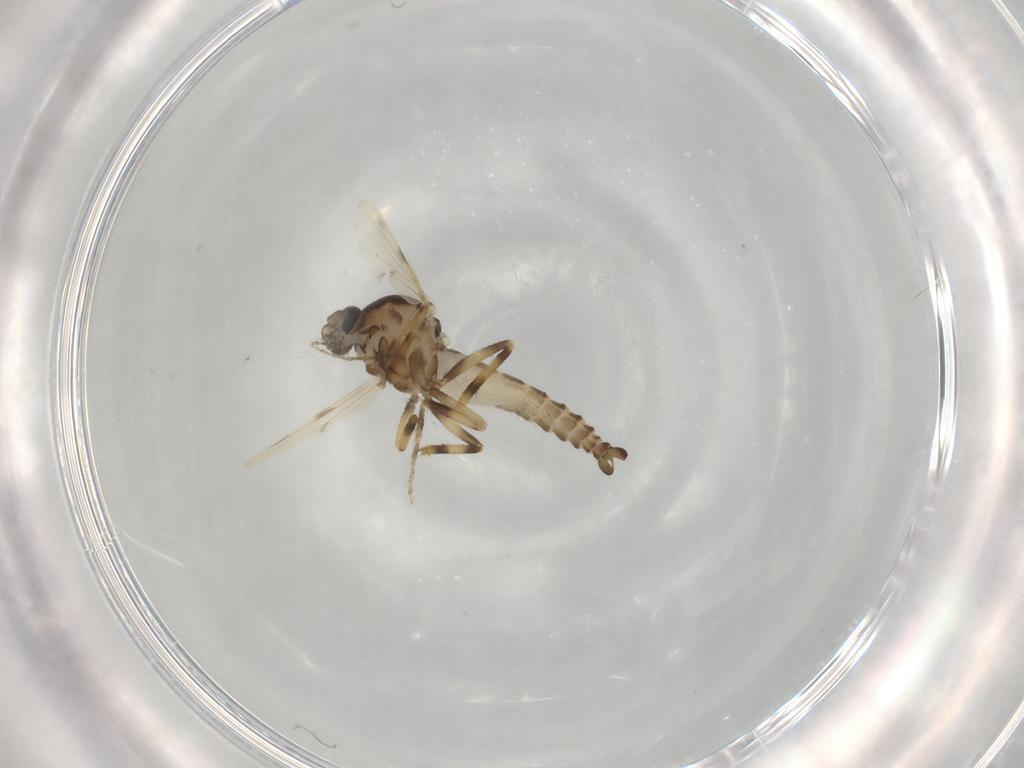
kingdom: Animalia
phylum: Arthropoda
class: Insecta
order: Diptera
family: Ceratopogonidae
